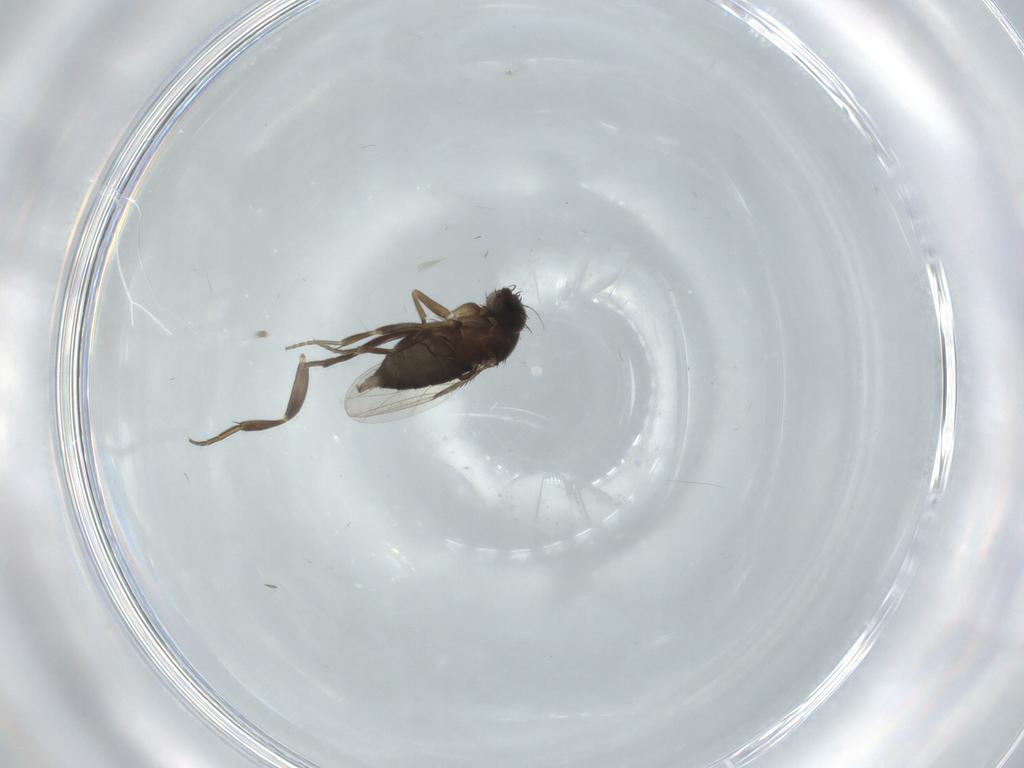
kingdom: Animalia
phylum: Arthropoda
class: Insecta
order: Diptera
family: Phoridae
